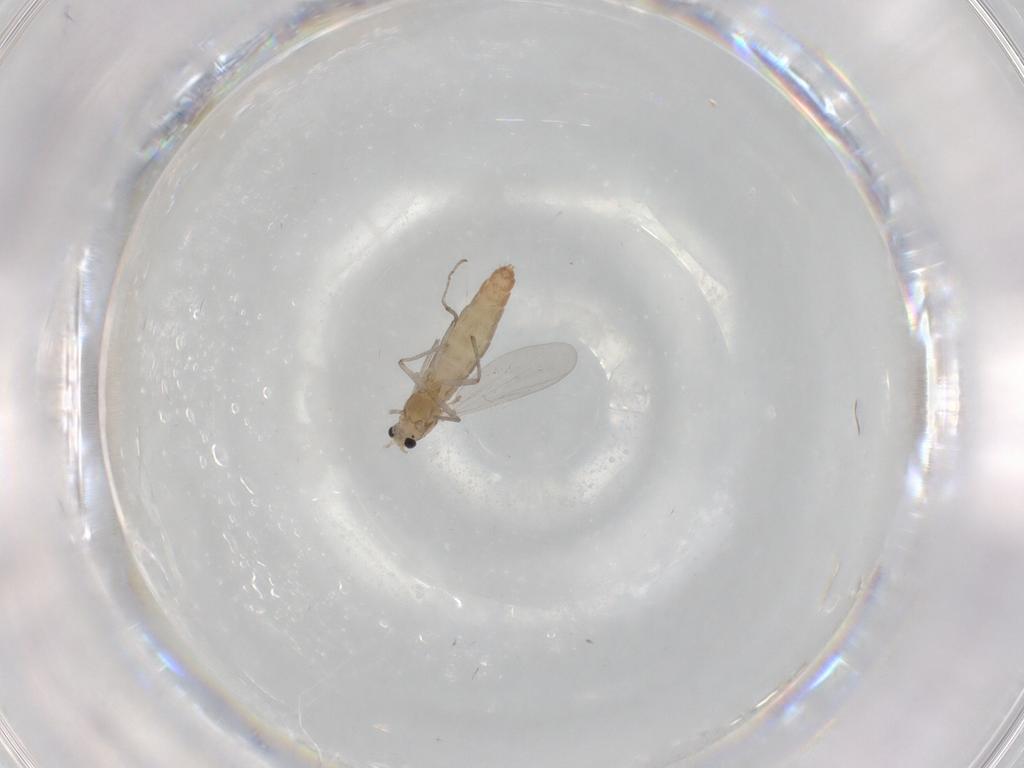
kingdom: Animalia
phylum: Arthropoda
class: Insecta
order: Diptera
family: Chironomidae
